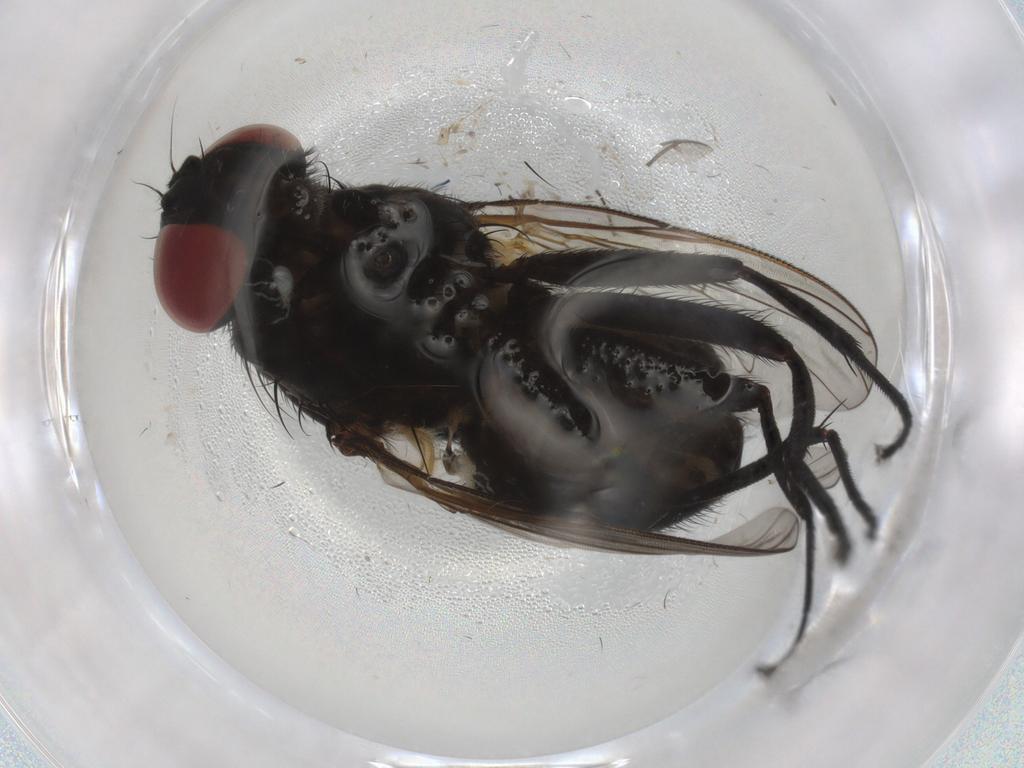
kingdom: Animalia
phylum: Arthropoda
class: Insecta
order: Diptera
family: Muscidae
